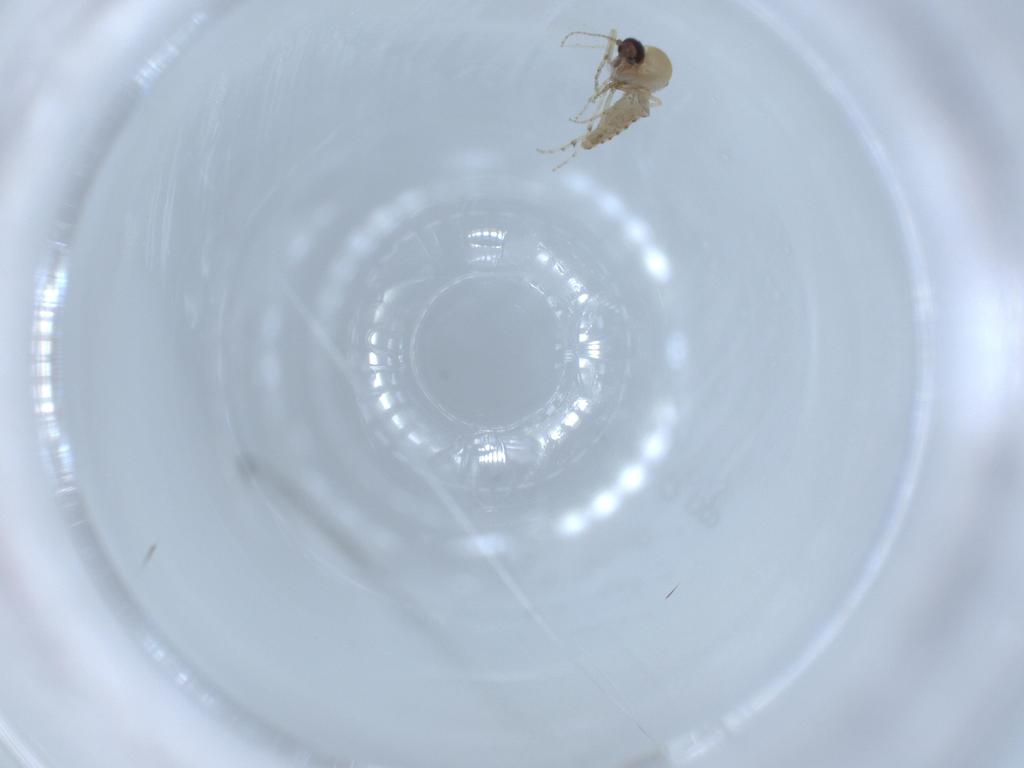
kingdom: Animalia
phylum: Arthropoda
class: Insecta
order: Diptera
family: Ceratopogonidae
